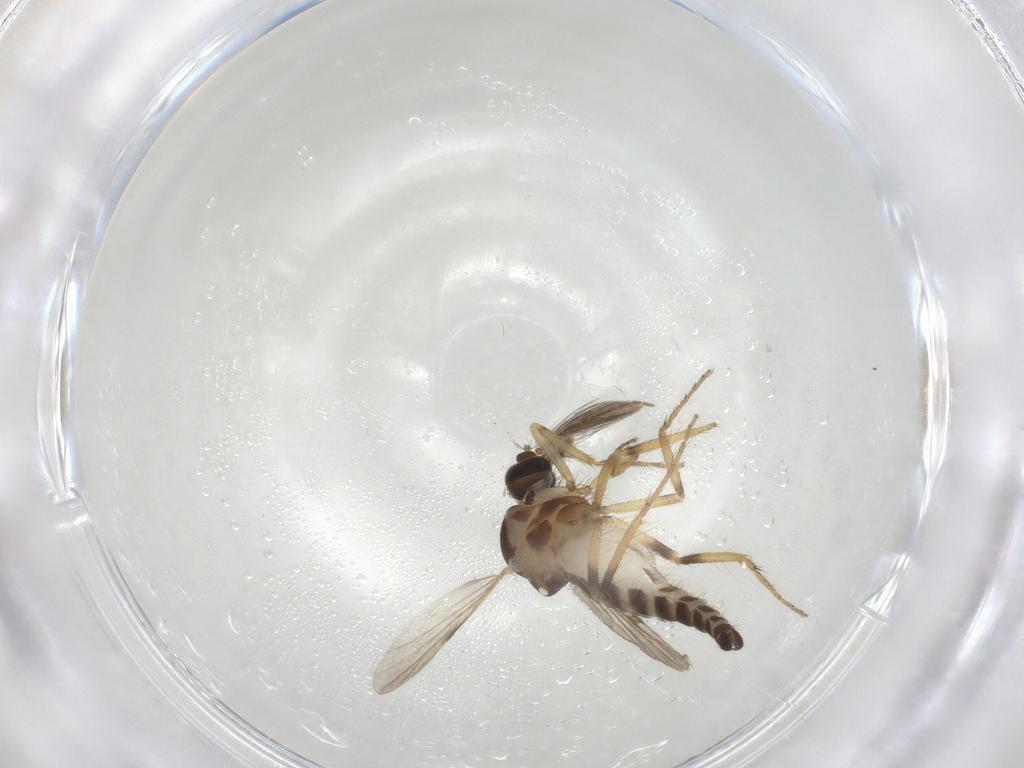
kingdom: Animalia
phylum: Arthropoda
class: Insecta
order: Diptera
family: Ceratopogonidae
